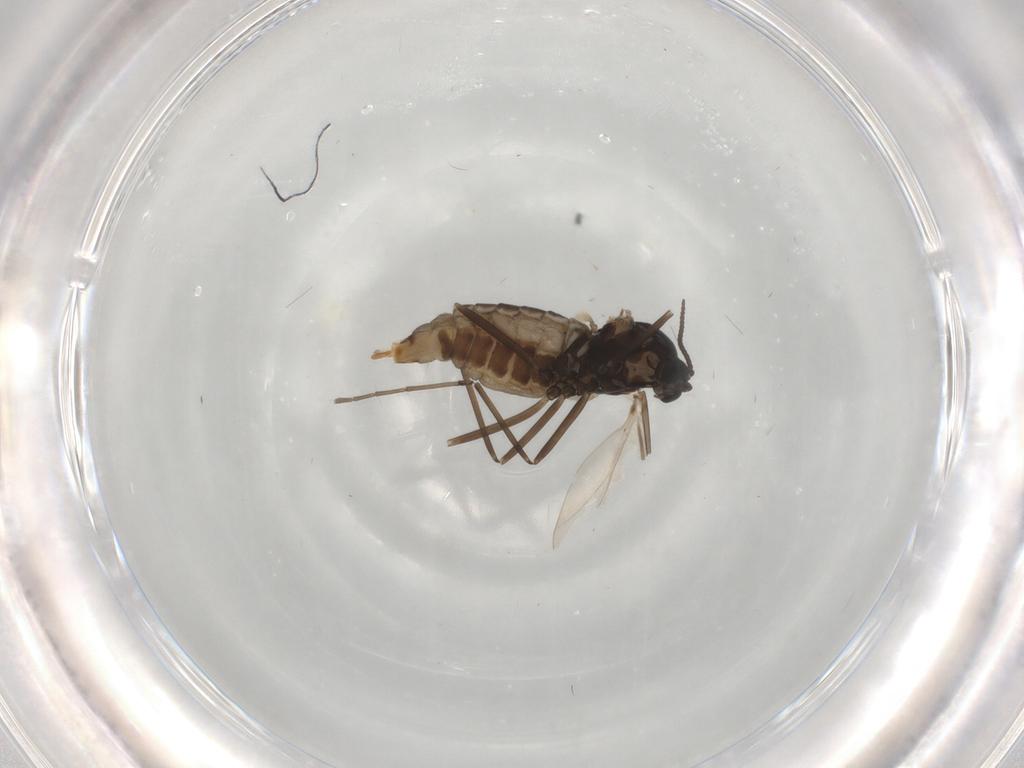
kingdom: Animalia
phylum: Arthropoda
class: Insecta
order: Diptera
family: Cecidomyiidae
